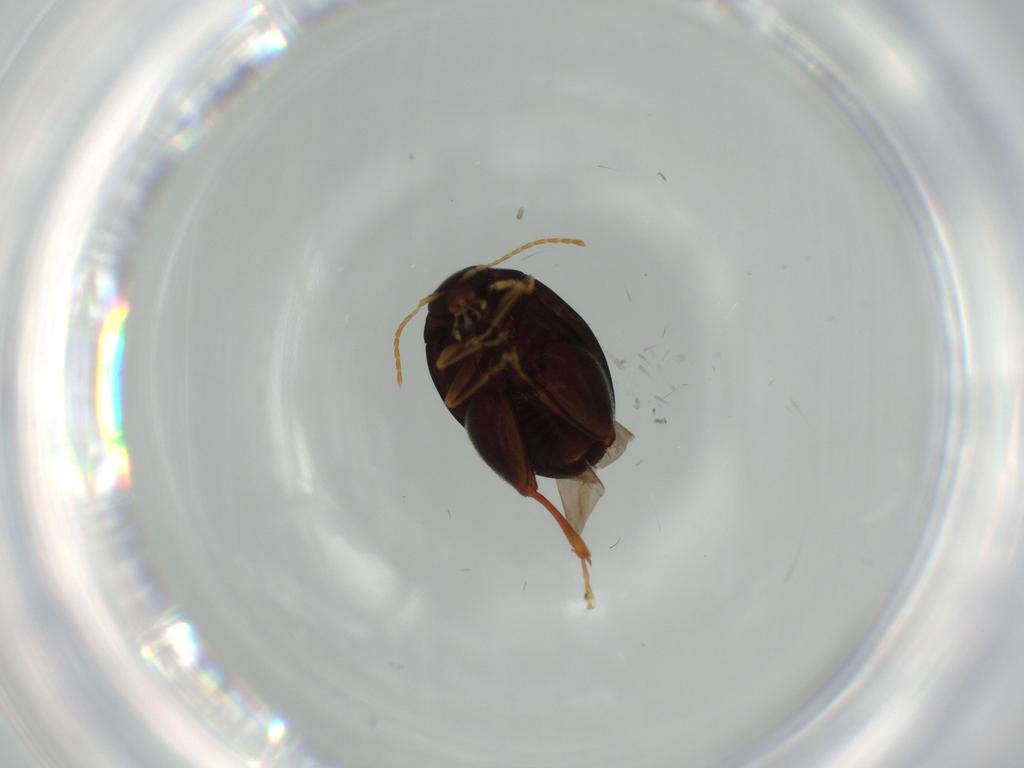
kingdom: Animalia
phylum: Arthropoda
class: Insecta
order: Coleoptera
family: Chrysomelidae
